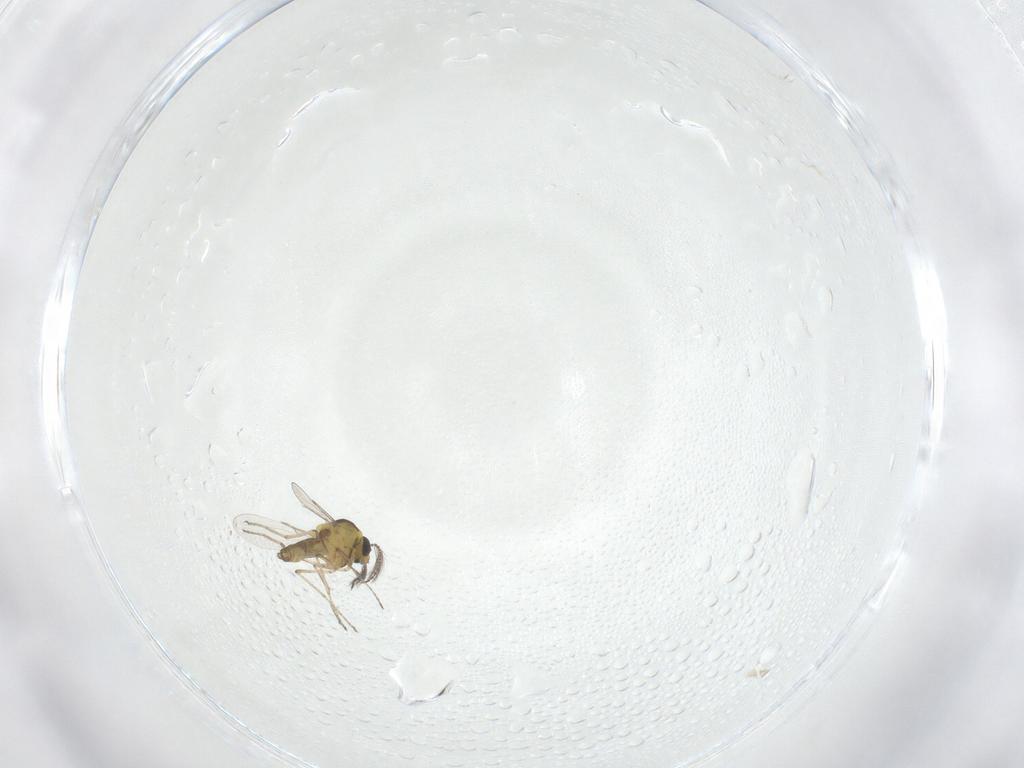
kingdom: Animalia
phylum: Arthropoda
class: Insecta
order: Diptera
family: Ceratopogonidae
